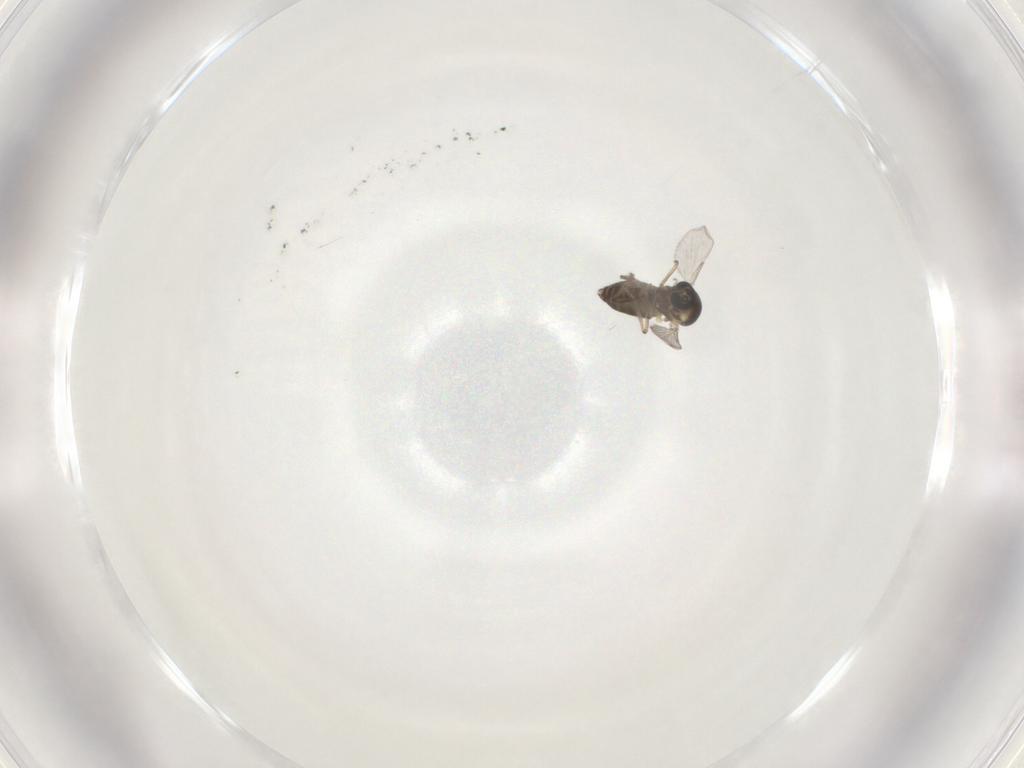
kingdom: Animalia
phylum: Arthropoda
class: Insecta
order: Diptera
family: Ceratopogonidae
